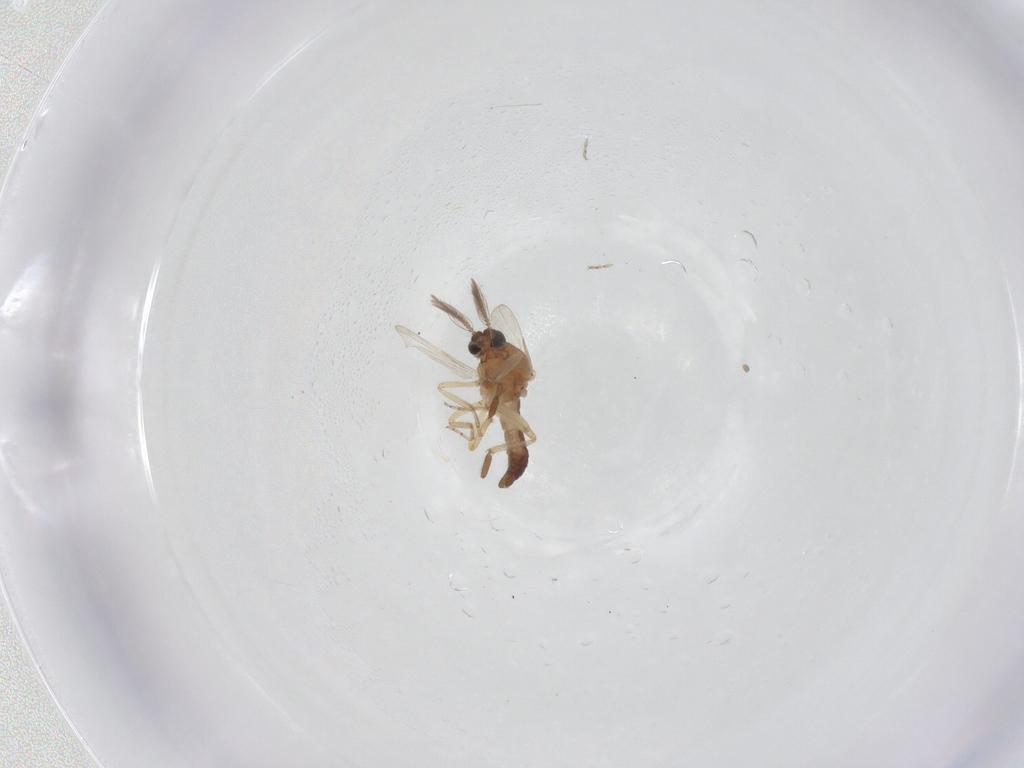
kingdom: Animalia
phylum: Arthropoda
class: Insecta
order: Diptera
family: Ceratopogonidae
